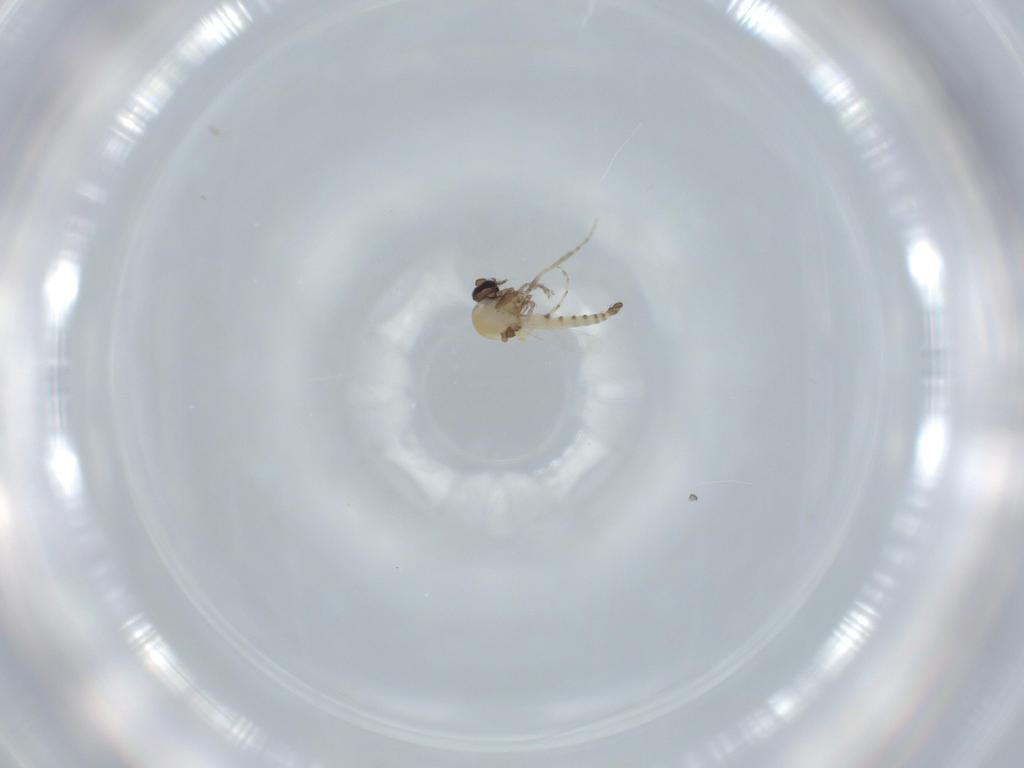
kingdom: Animalia
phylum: Arthropoda
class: Insecta
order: Diptera
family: Ceratopogonidae
